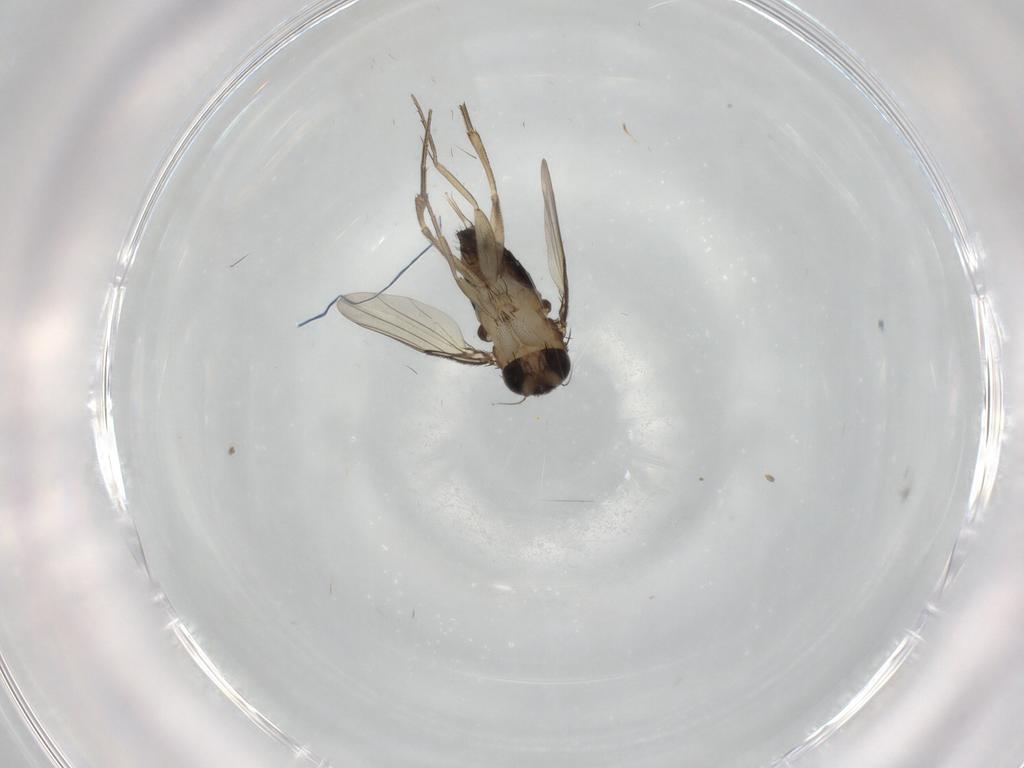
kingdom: Animalia
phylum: Arthropoda
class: Insecta
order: Diptera
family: Phoridae
